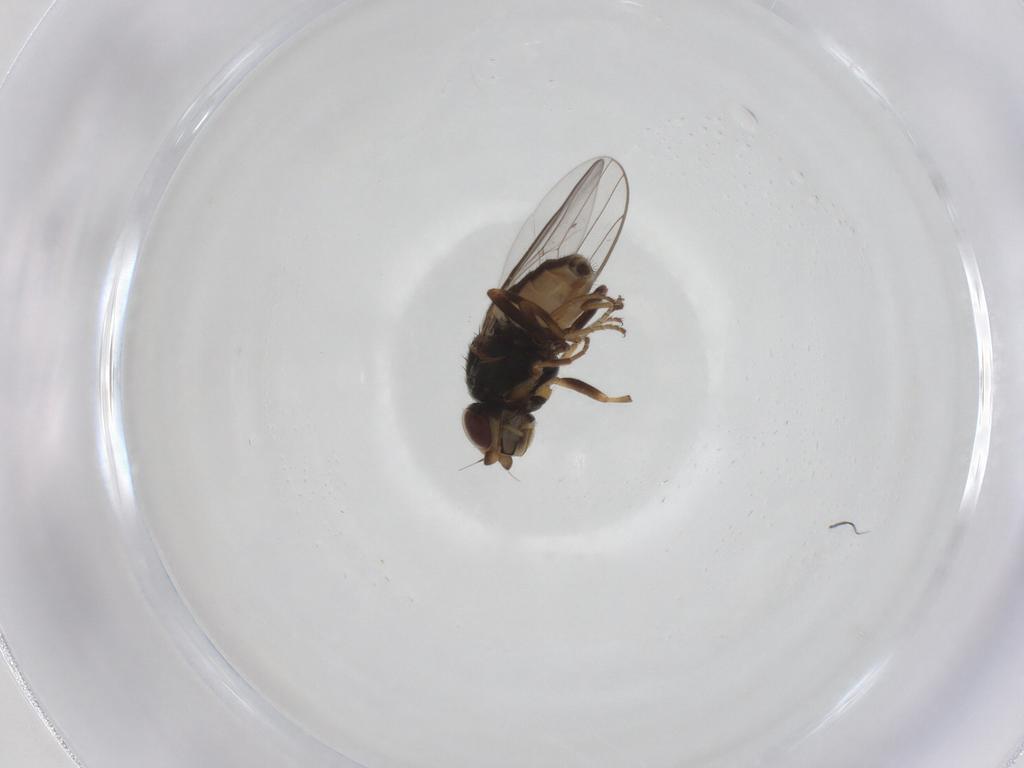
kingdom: Animalia
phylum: Arthropoda
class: Insecta
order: Diptera
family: Chloropidae
